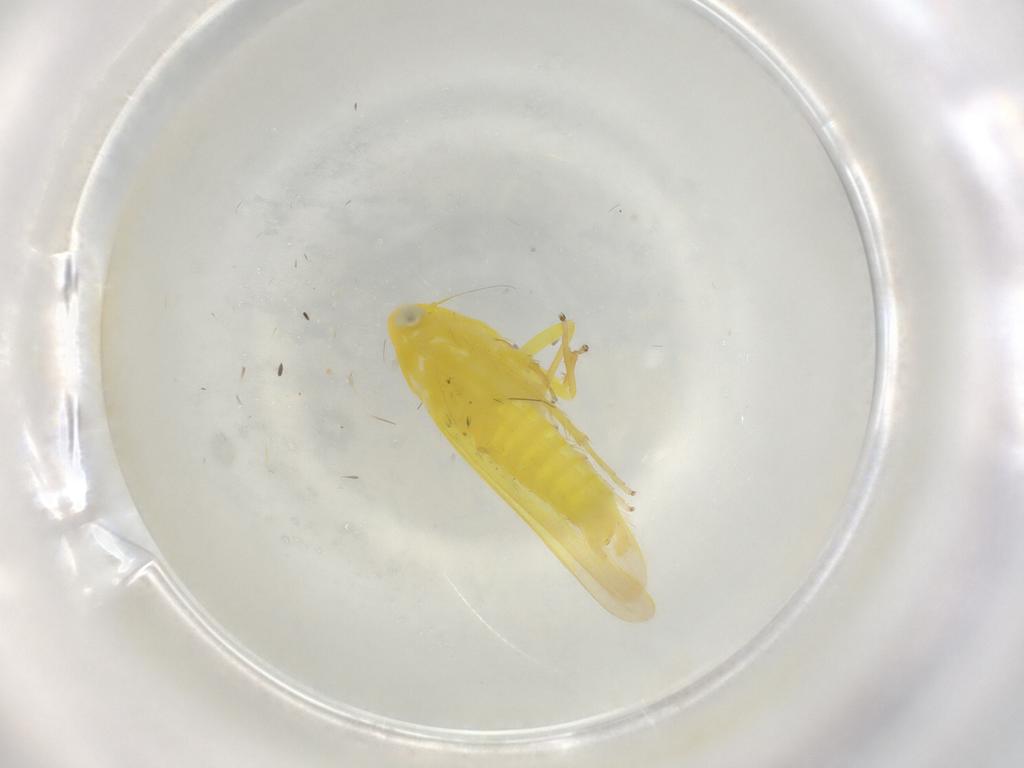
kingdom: Animalia
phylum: Arthropoda
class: Insecta
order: Hemiptera
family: Cicadellidae
